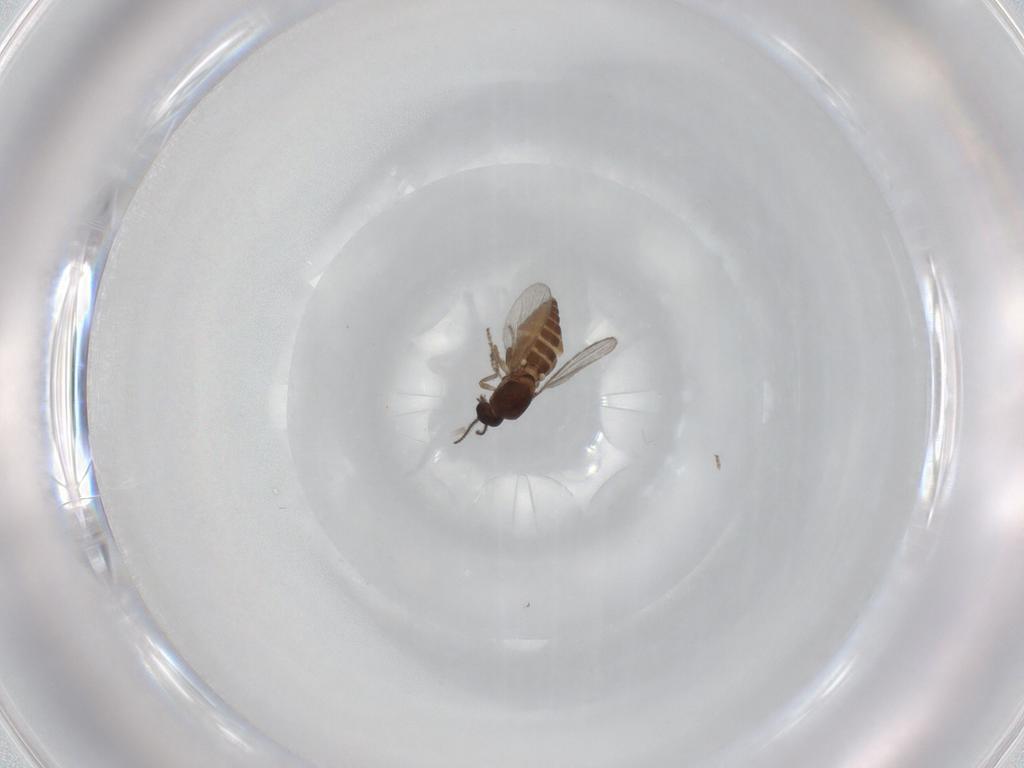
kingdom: Animalia
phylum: Arthropoda
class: Insecta
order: Diptera
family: Ceratopogonidae
